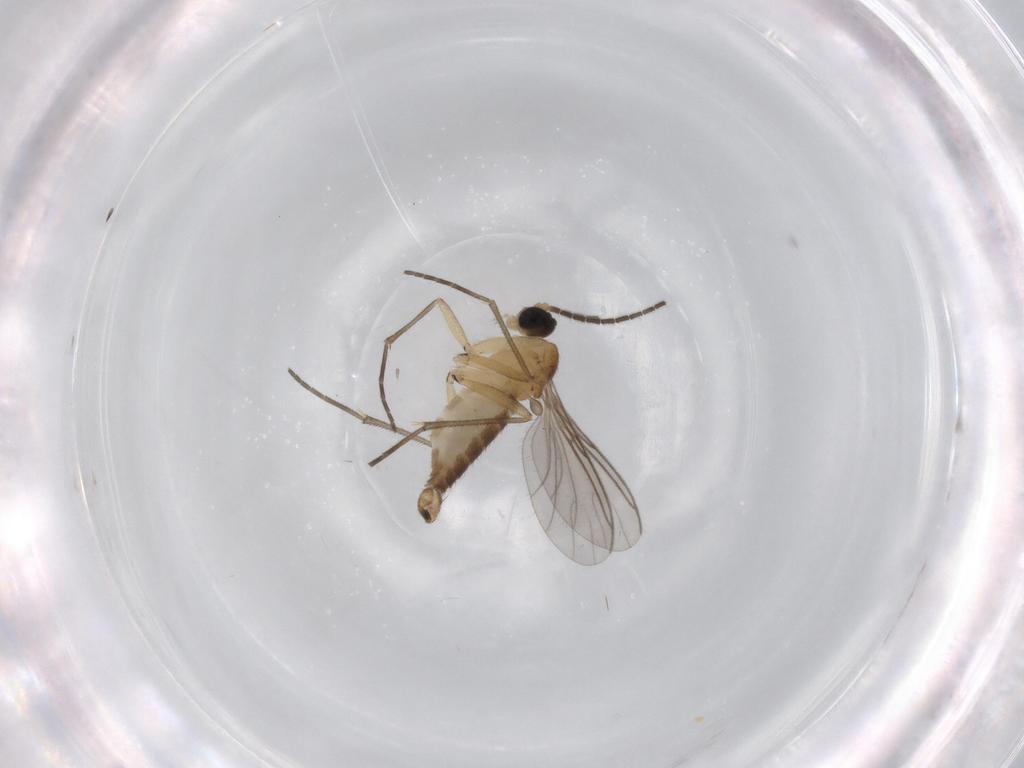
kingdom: Animalia
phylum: Arthropoda
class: Insecta
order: Diptera
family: Sciaridae
